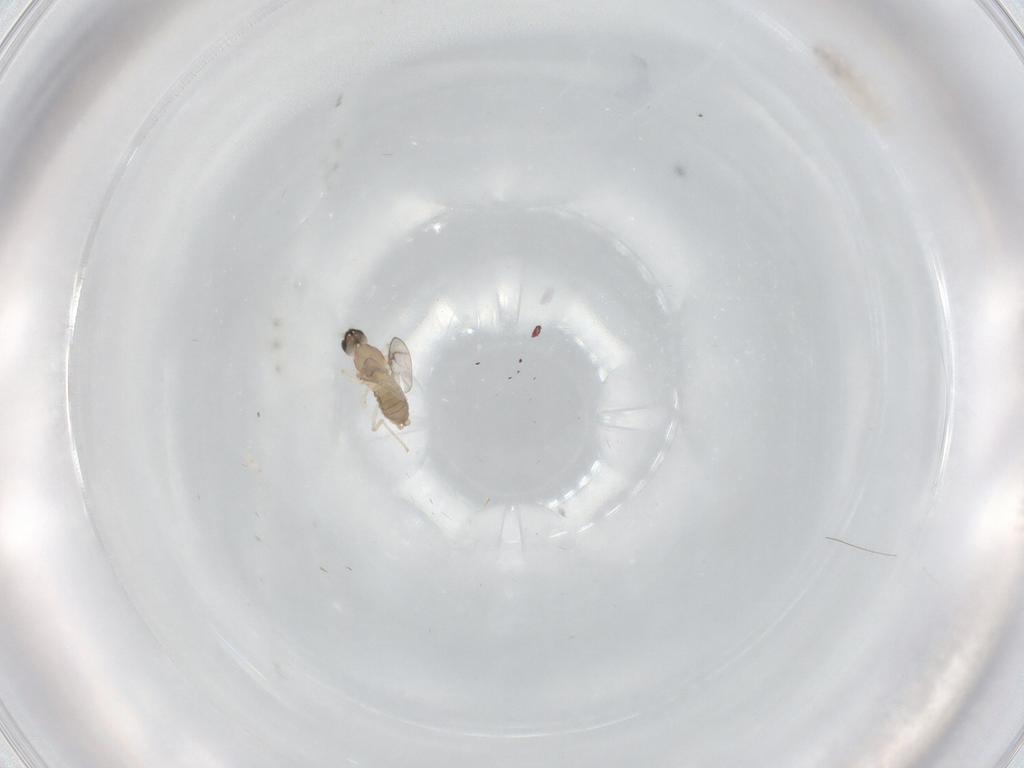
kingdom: Animalia
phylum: Arthropoda
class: Insecta
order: Diptera
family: Cecidomyiidae
